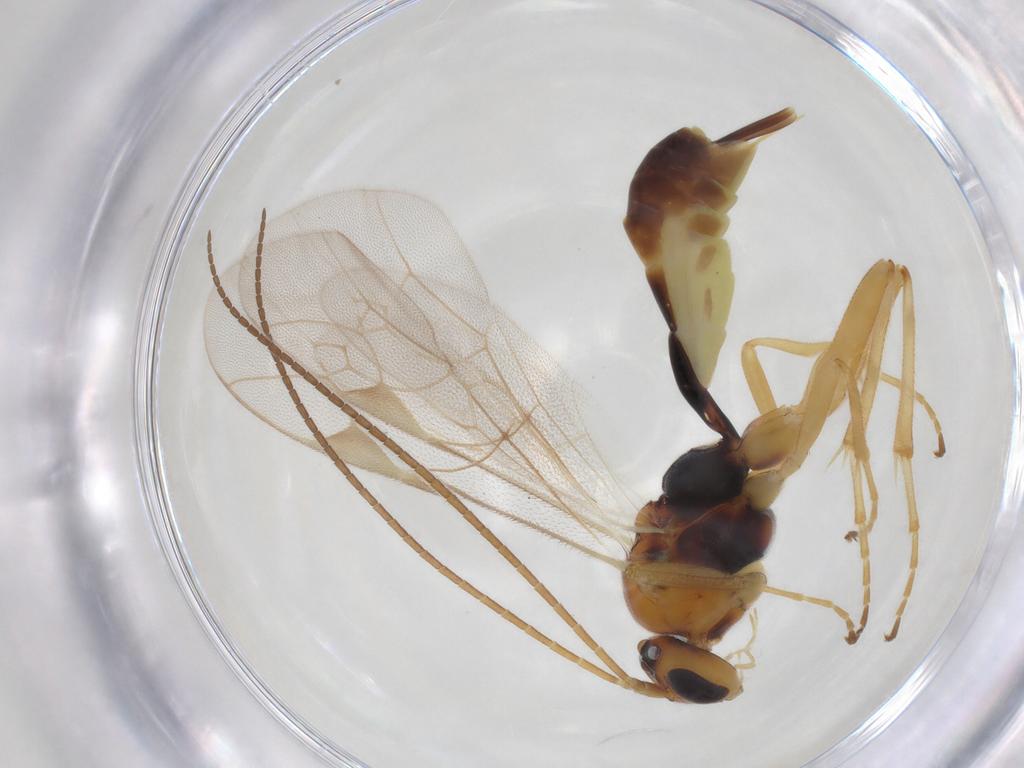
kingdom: Animalia
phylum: Arthropoda
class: Insecta
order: Hymenoptera
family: Ichneumonidae
